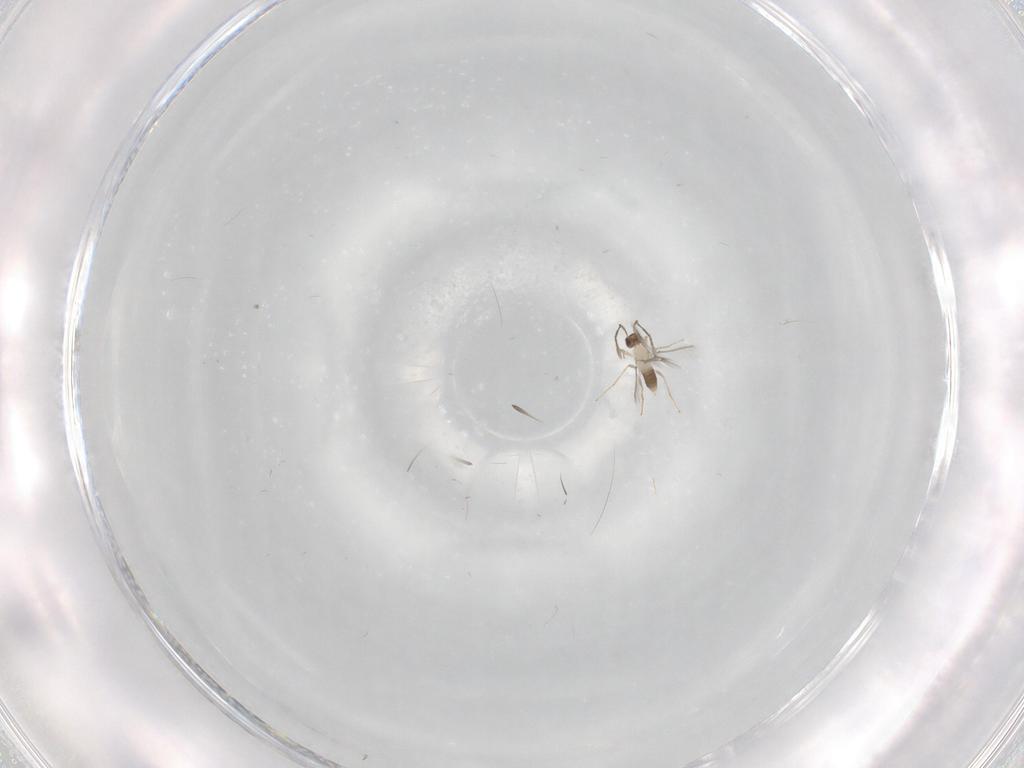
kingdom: Animalia
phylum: Arthropoda
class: Insecta
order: Hymenoptera
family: Mymaridae
